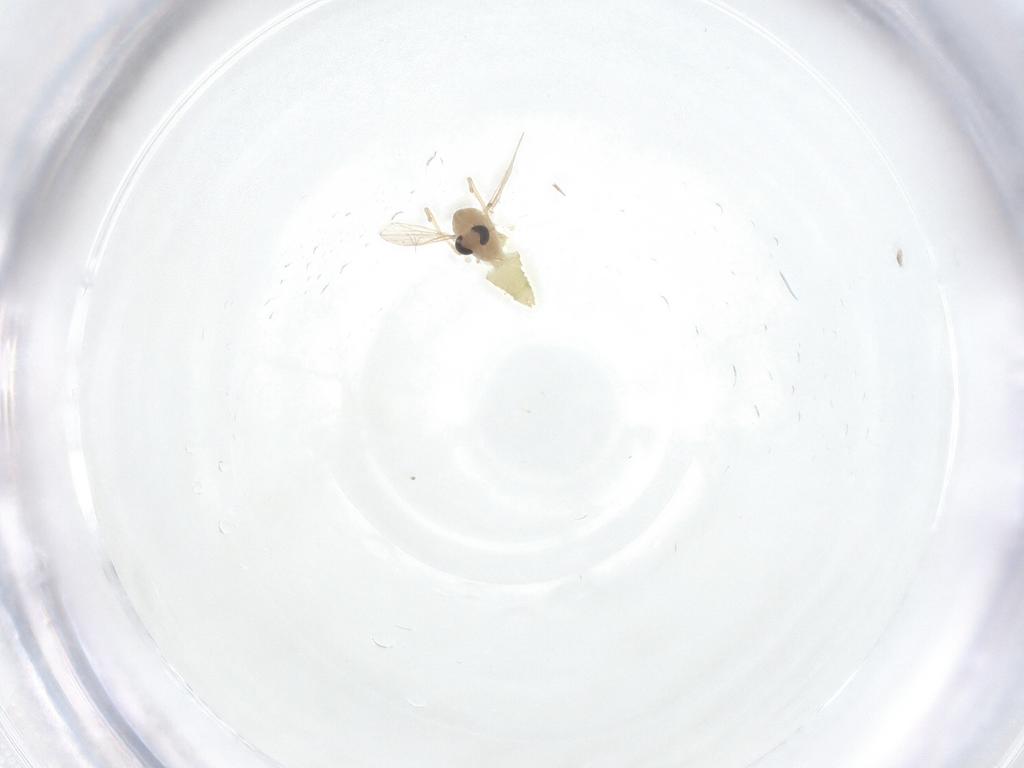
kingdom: Animalia
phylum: Arthropoda
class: Insecta
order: Diptera
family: Chironomidae
